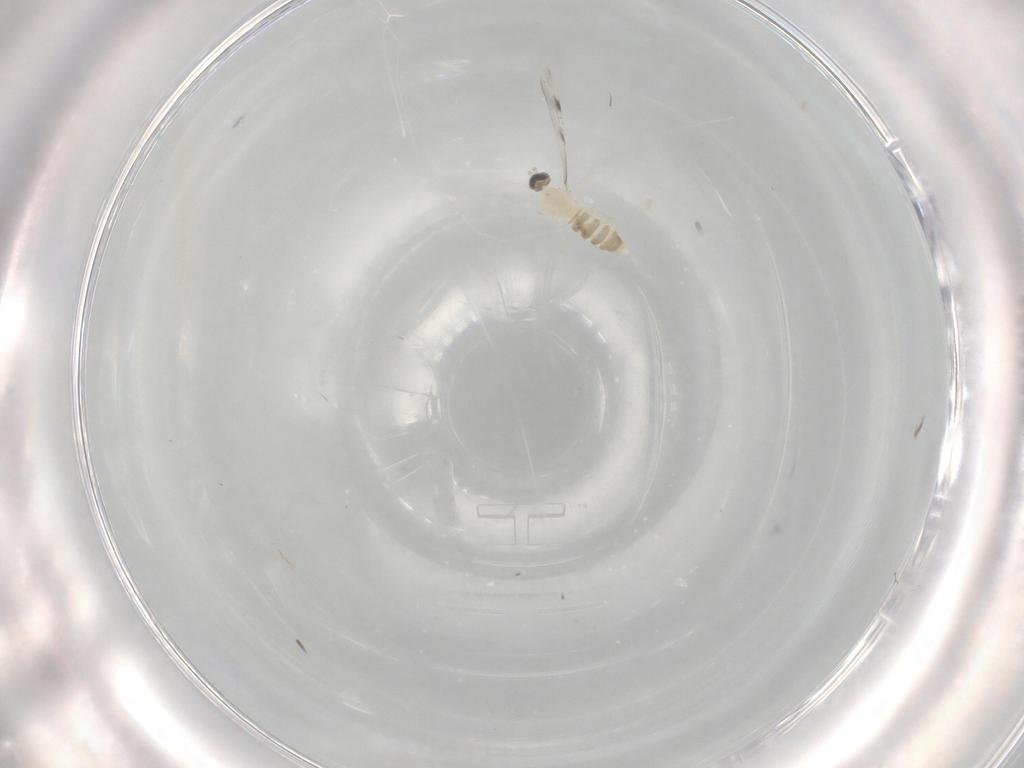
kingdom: Animalia
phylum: Arthropoda
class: Insecta
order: Diptera
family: Cecidomyiidae
